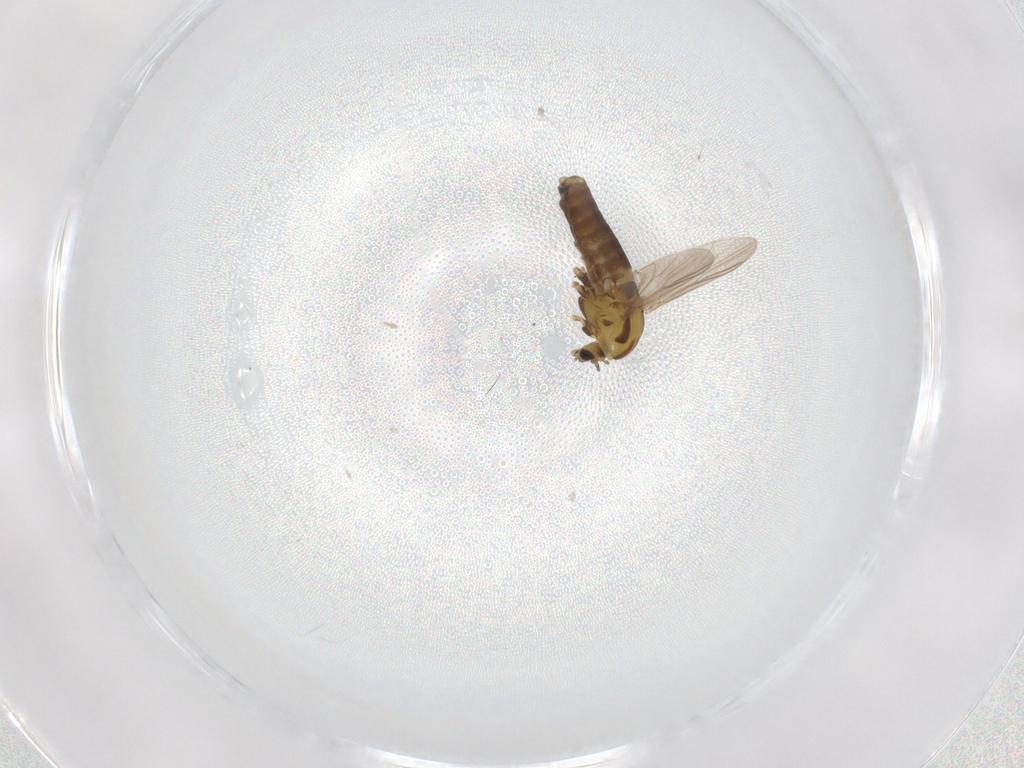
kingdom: Animalia
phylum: Arthropoda
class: Insecta
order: Diptera
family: Chironomidae
